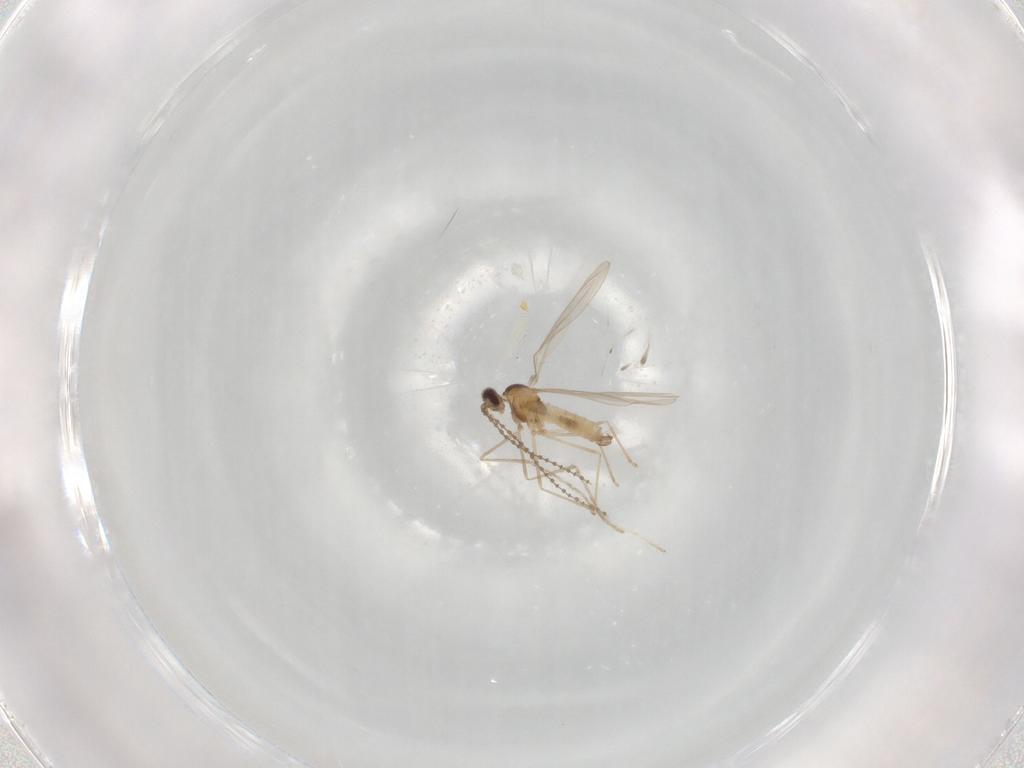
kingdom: Animalia
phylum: Arthropoda
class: Insecta
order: Diptera
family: Cecidomyiidae
